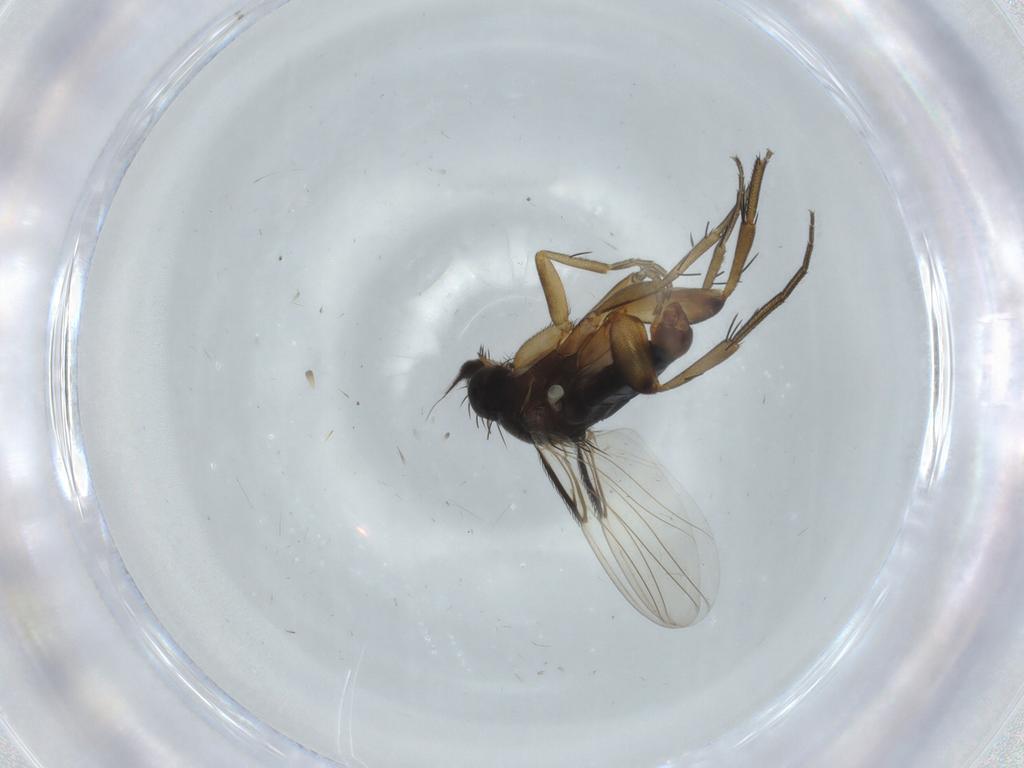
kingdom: Animalia
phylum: Arthropoda
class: Insecta
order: Diptera
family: Phoridae
